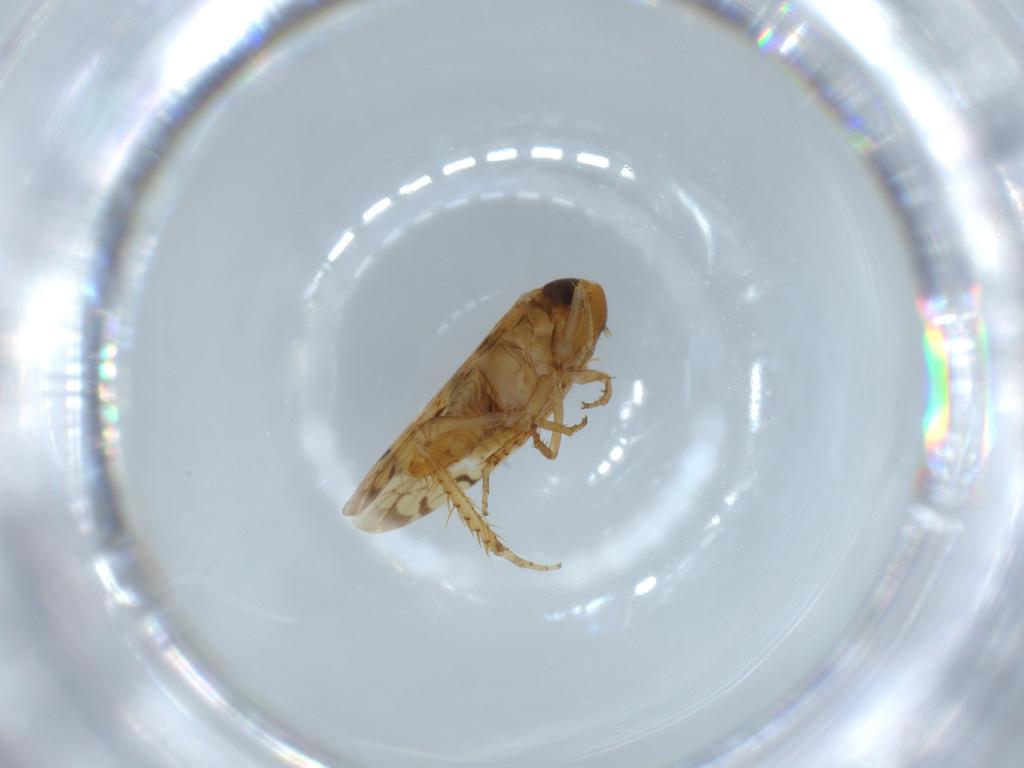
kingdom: Animalia
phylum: Arthropoda
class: Insecta
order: Hemiptera
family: Cicadellidae
